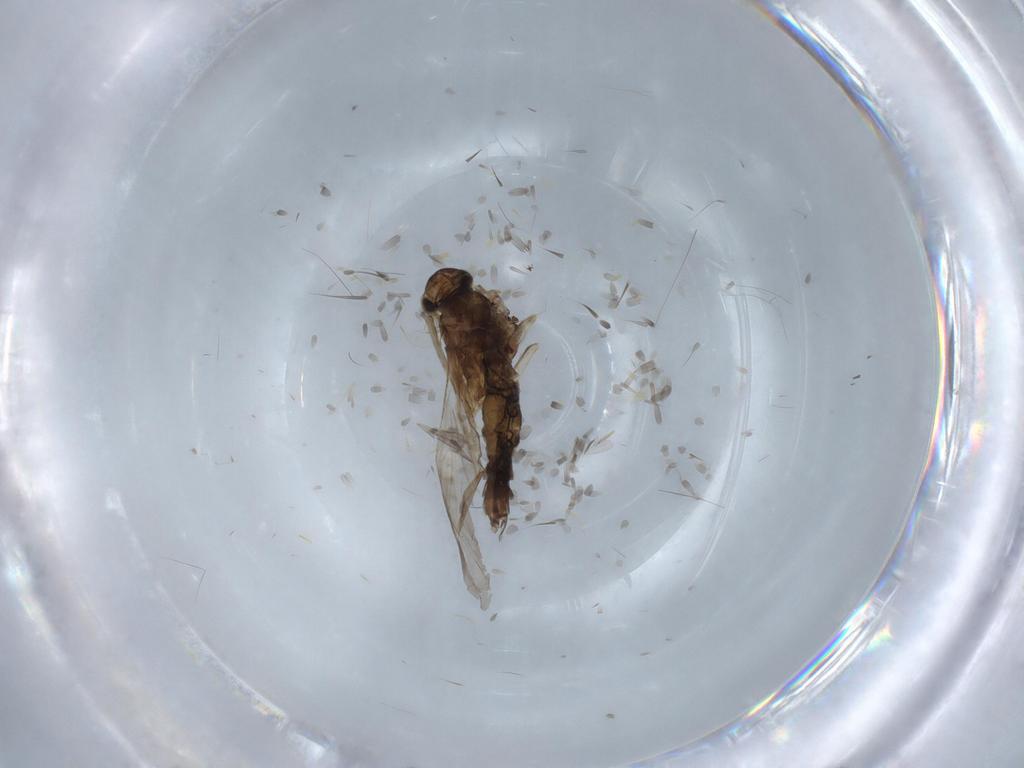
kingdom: Animalia
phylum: Arthropoda
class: Insecta
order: Trichoptera
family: Xiphocentronidae
